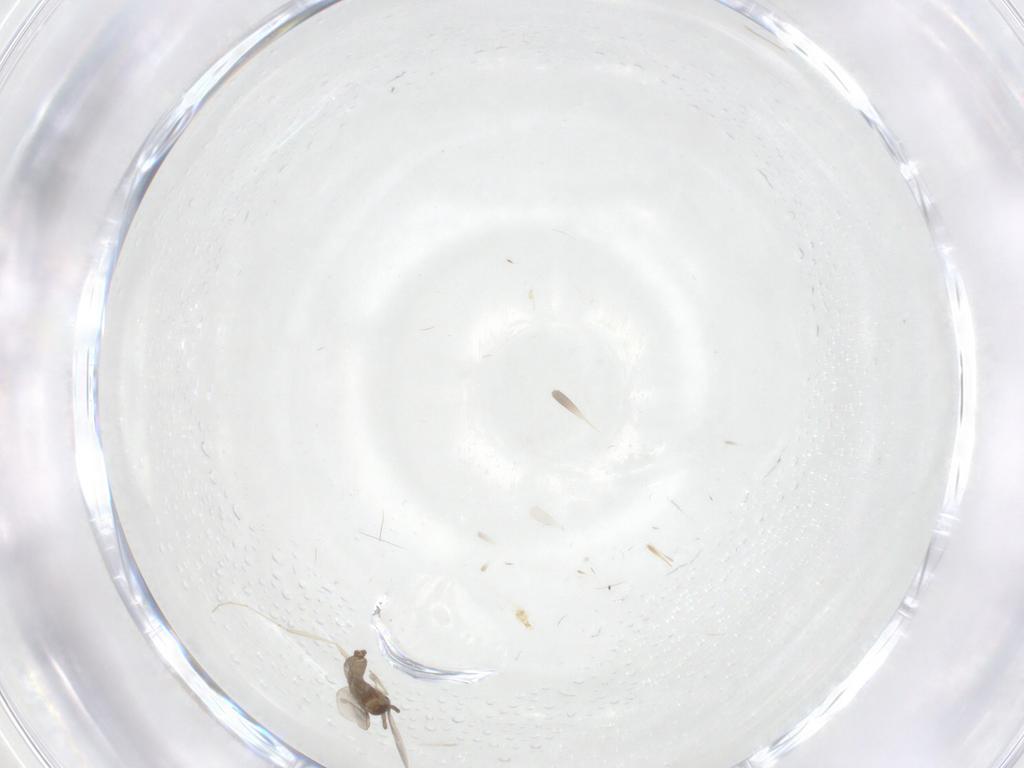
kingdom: Animalia
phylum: Arthropoda
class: Insecta
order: Diptera
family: Cecidomyiidae
